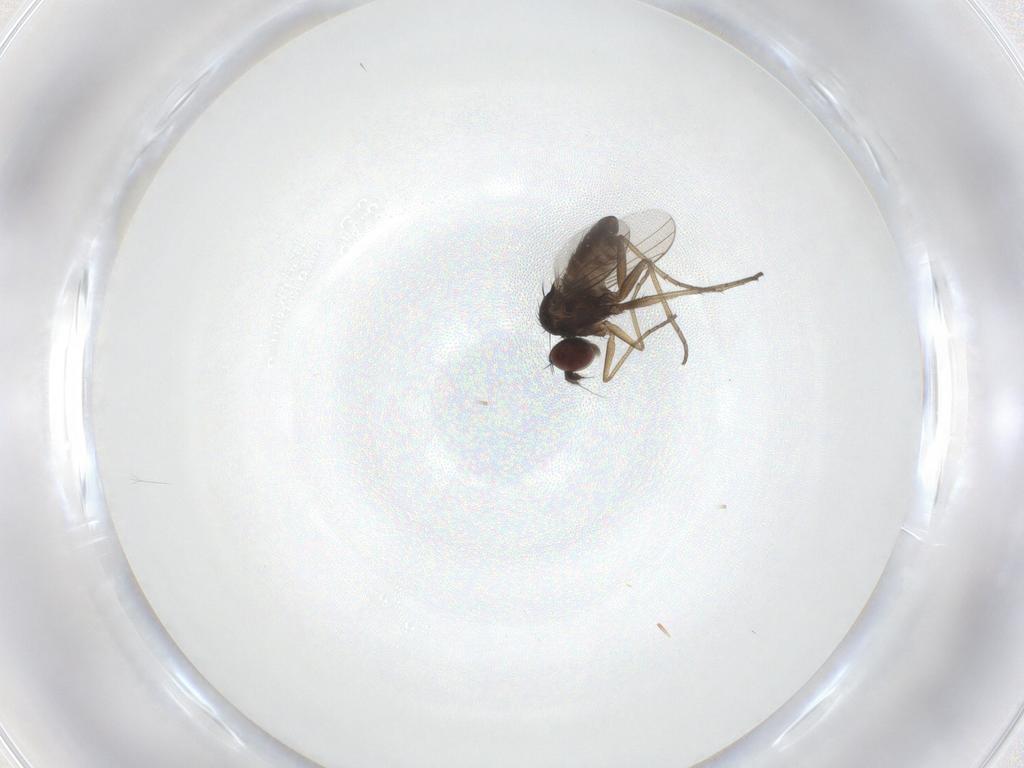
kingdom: Animalia
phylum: Arthropoda
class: Insecta
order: Diptera
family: Dolichopodidae
